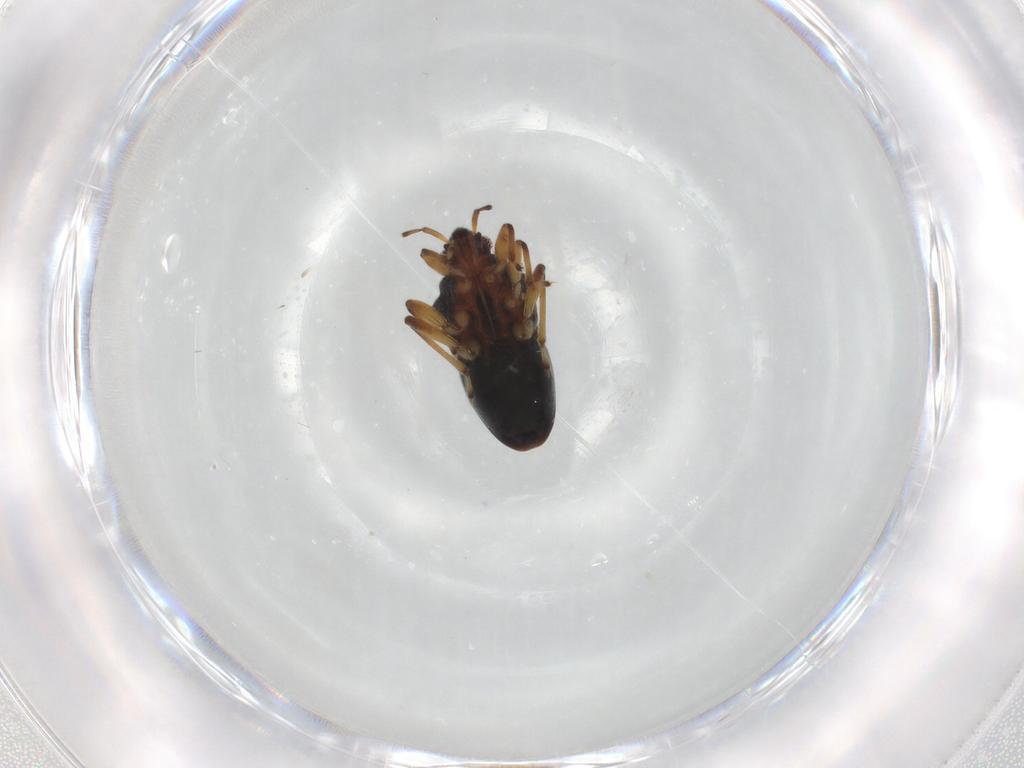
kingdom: Animalia
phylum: Arthropoda
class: Insecta
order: Hemiptera
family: Hebridae
